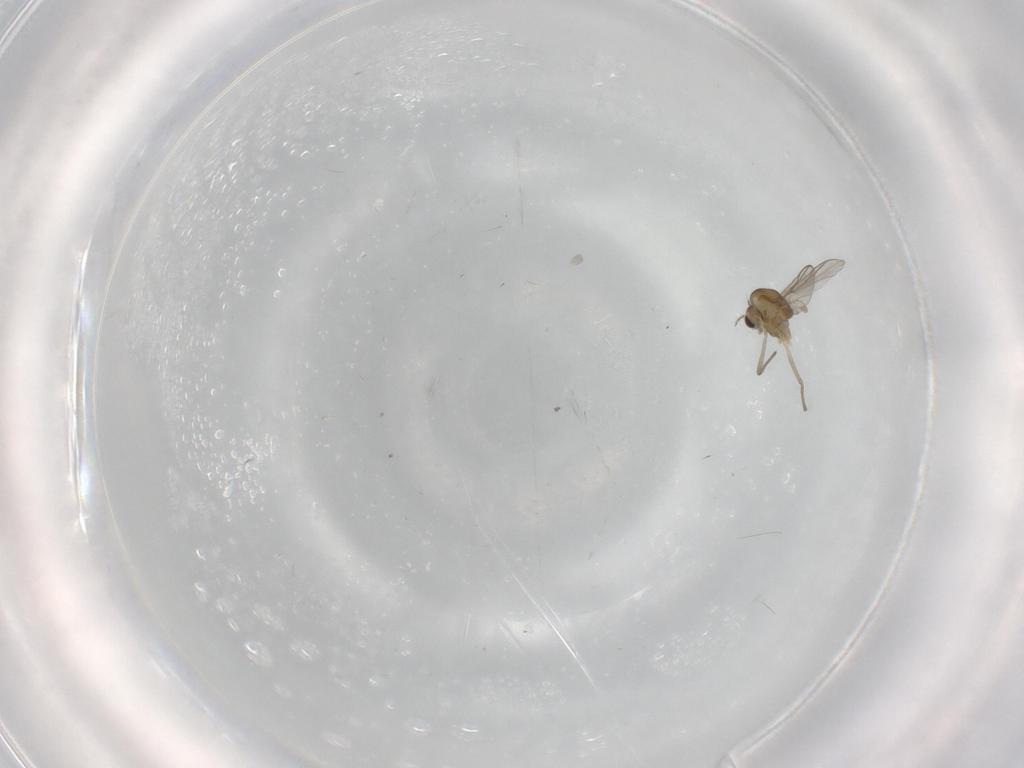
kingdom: Animalia
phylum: Arthropoda
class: Insecta
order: Diptera
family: Chironomidae
